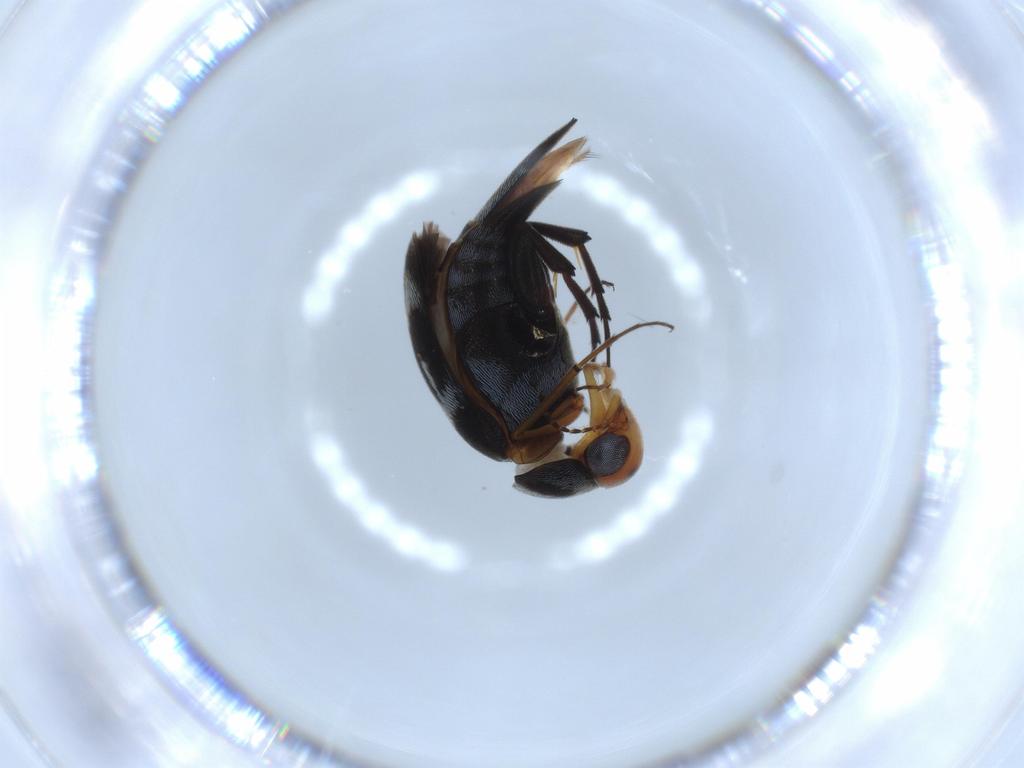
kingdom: Animalia
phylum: Arthropoda
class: Insecta
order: Coleoptera
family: Mordellidae
